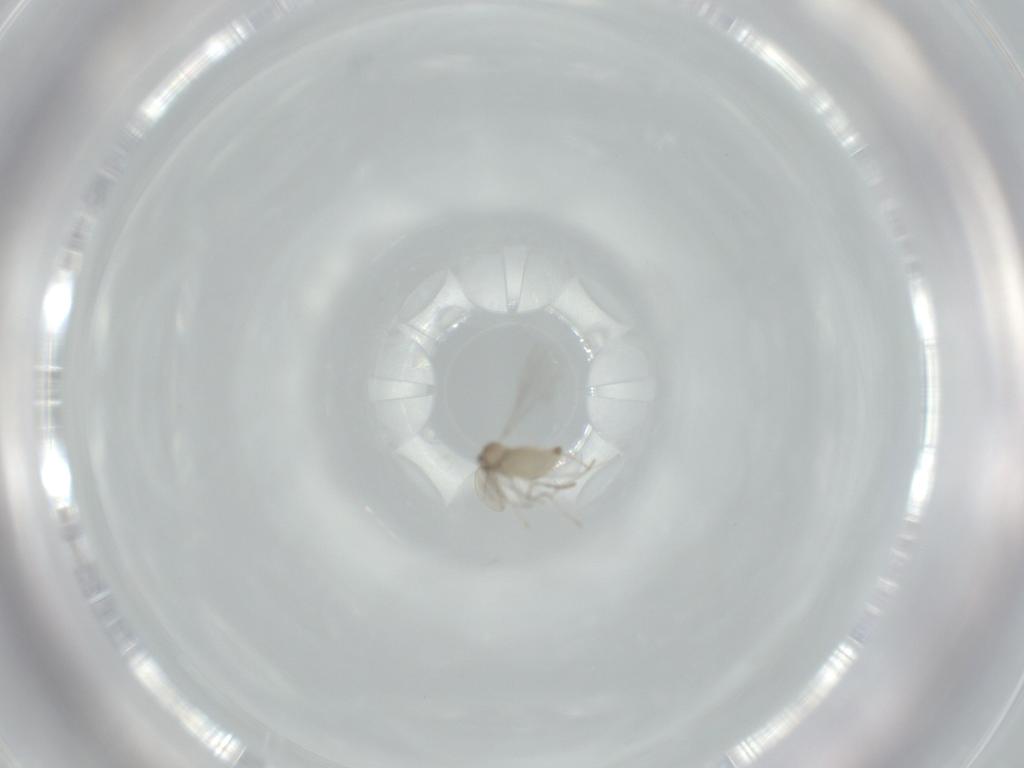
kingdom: Animalia
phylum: Arthropoda
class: Insecta
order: Diptera
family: Cecidomyiidae
